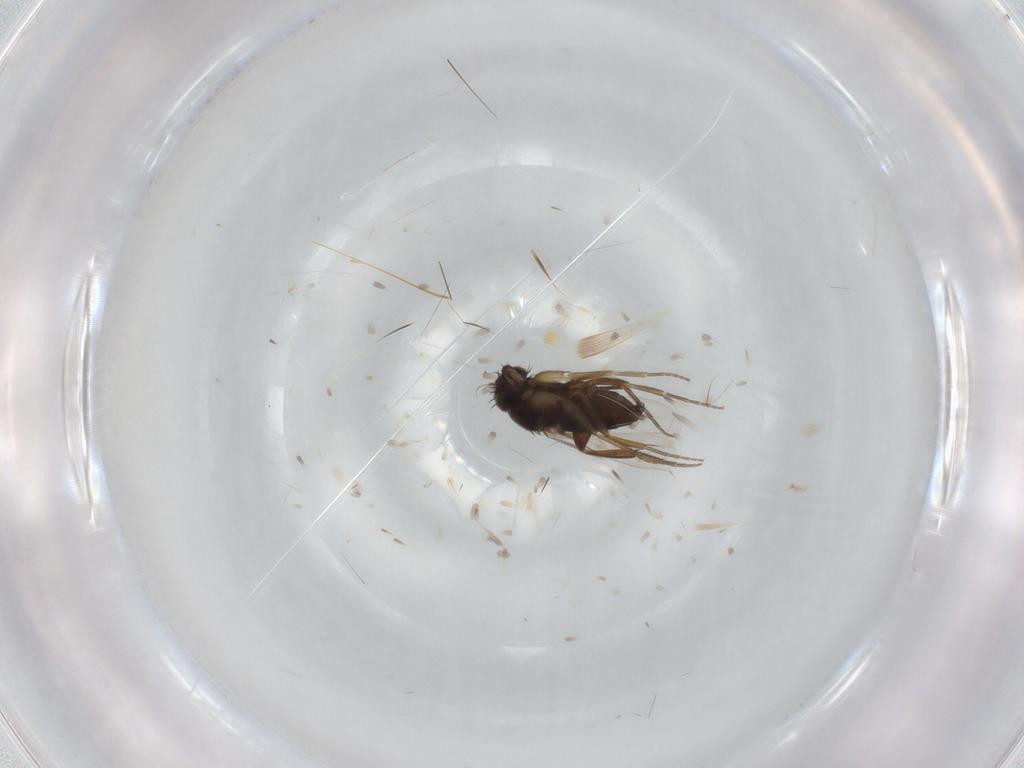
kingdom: Animalia
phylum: Arthropoda
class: Insecta
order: Diptera
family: Phoridae
